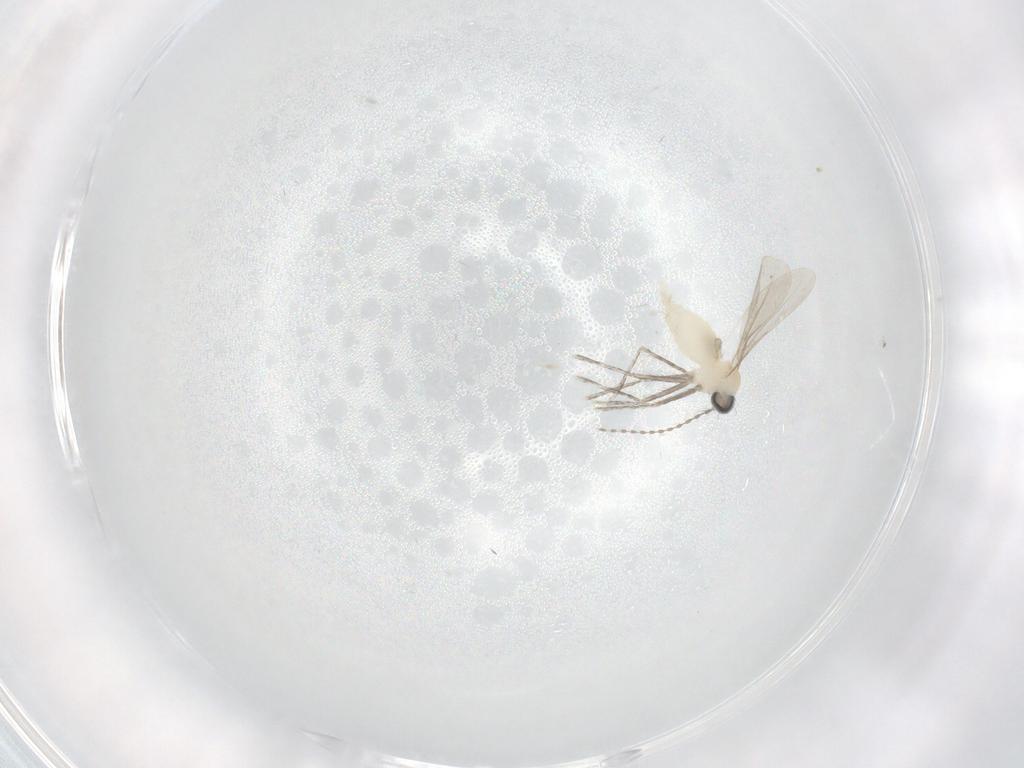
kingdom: Animalia
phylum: Arthropoda
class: Insecta
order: Diptera
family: Cecidomyiidae
